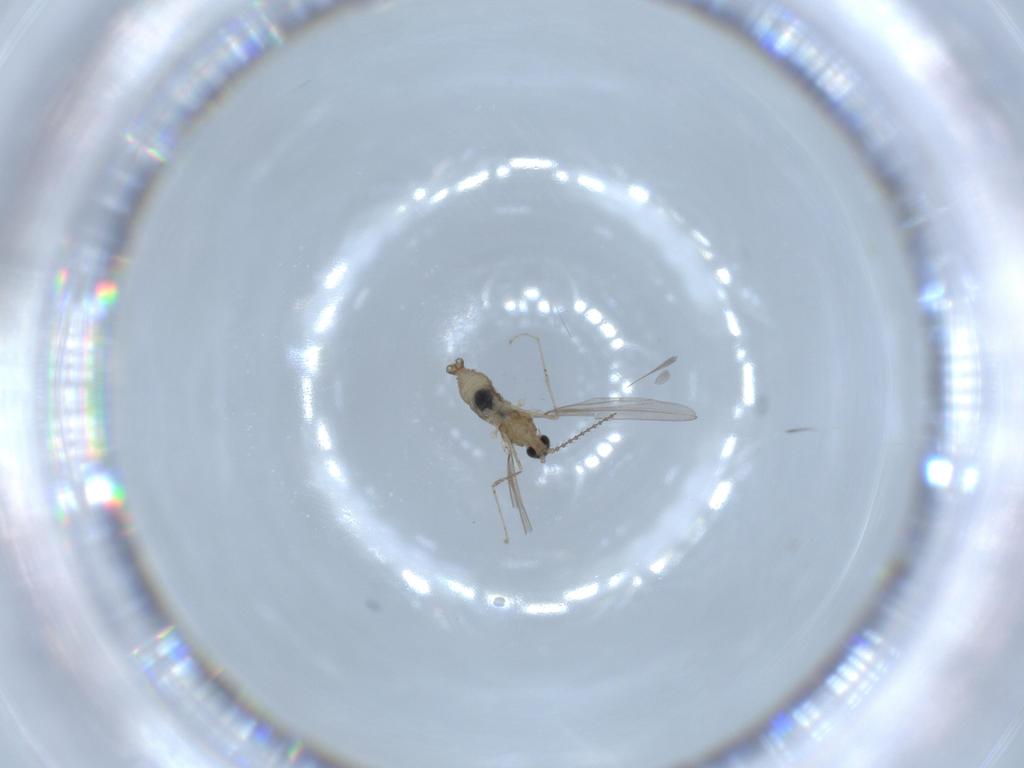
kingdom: Animalia
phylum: Arthropoda
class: Insecta
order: Diptera
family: Cecidomyiidae
